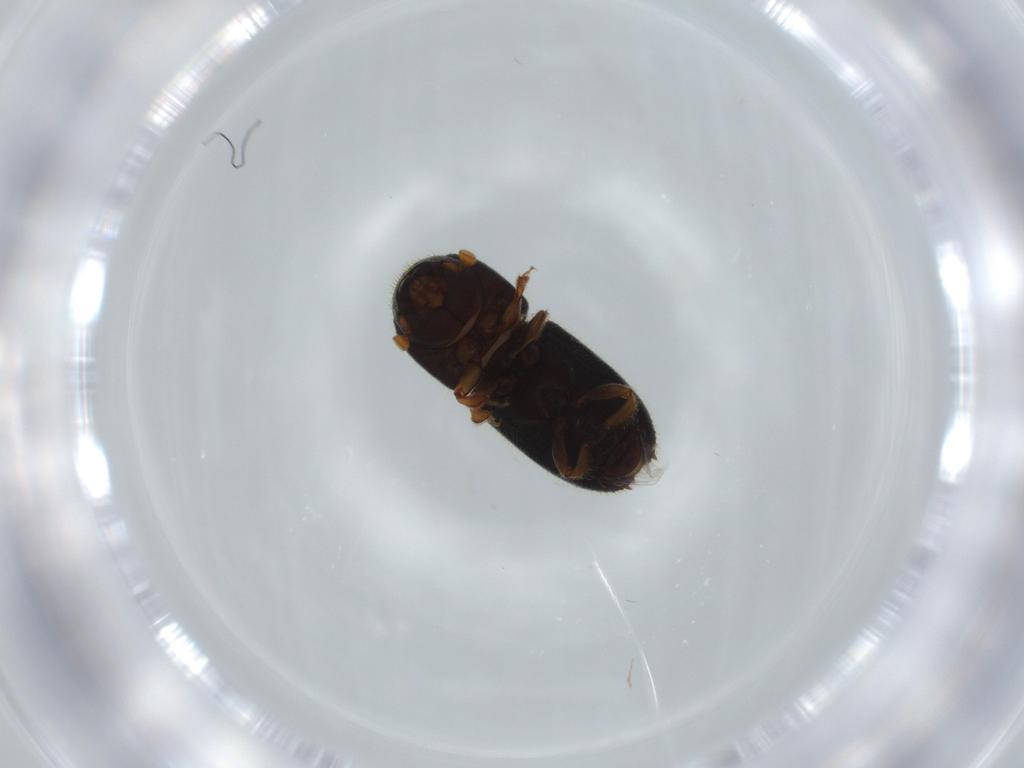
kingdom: Animalia
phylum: Arthropoda
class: Insecta
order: Coleoptera
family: Curculionidae
